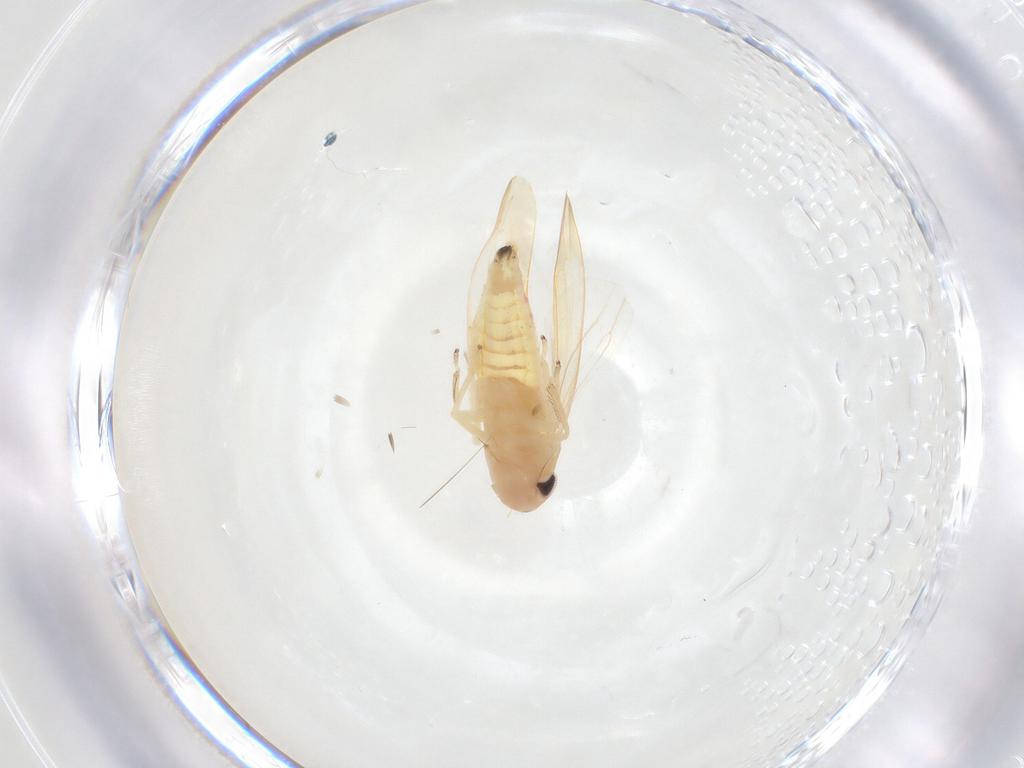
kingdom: Animalia
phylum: Arthropoda
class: Insecta
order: Hemiptera
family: Cicadellidae
